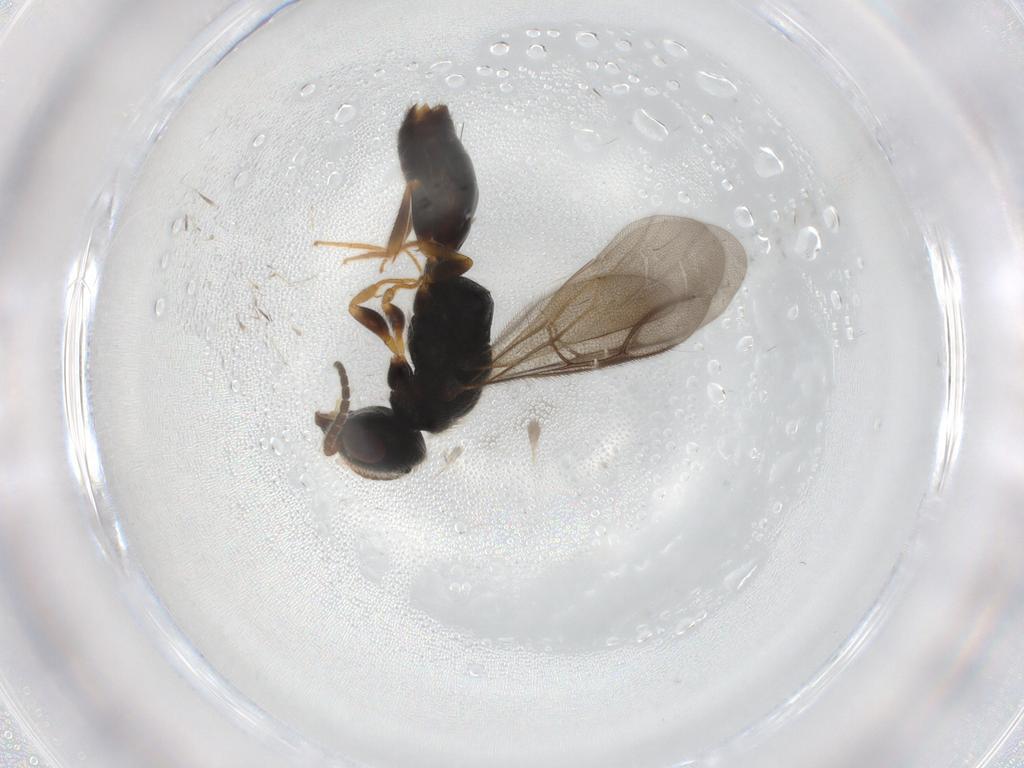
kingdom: Animalia
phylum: Arthropoda
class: Insecta
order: Hymenoptera
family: Bethylidae
